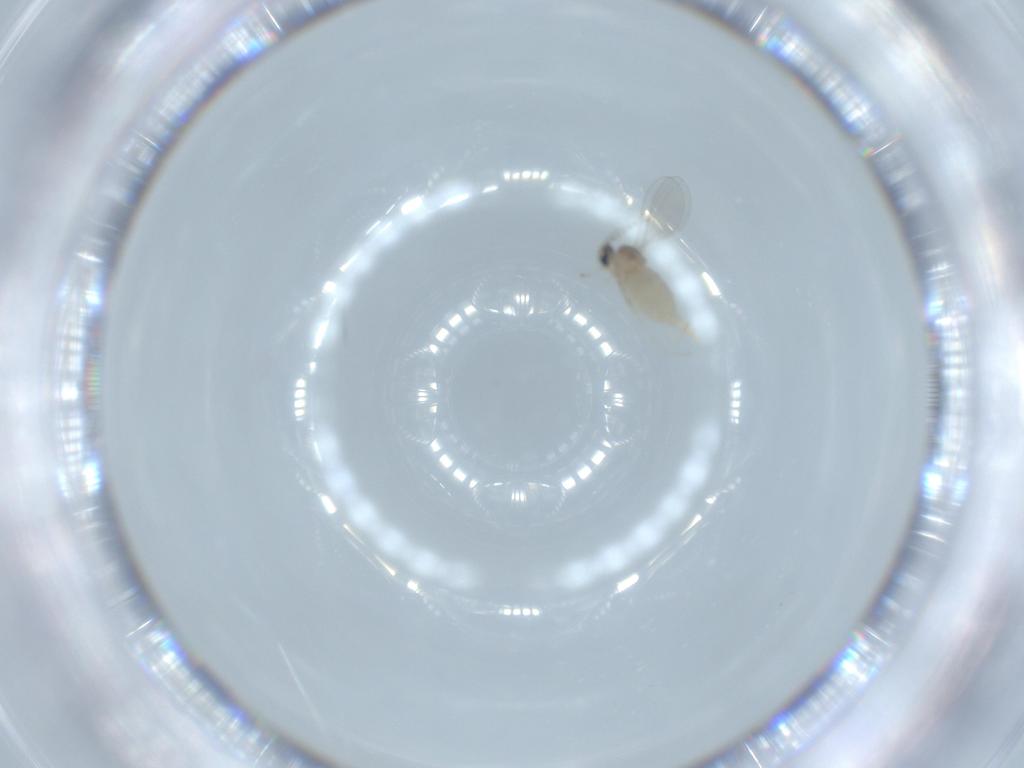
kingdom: Animalia
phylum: Arthropoda
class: Insecta
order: Diptera
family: Cecidomyiidae
